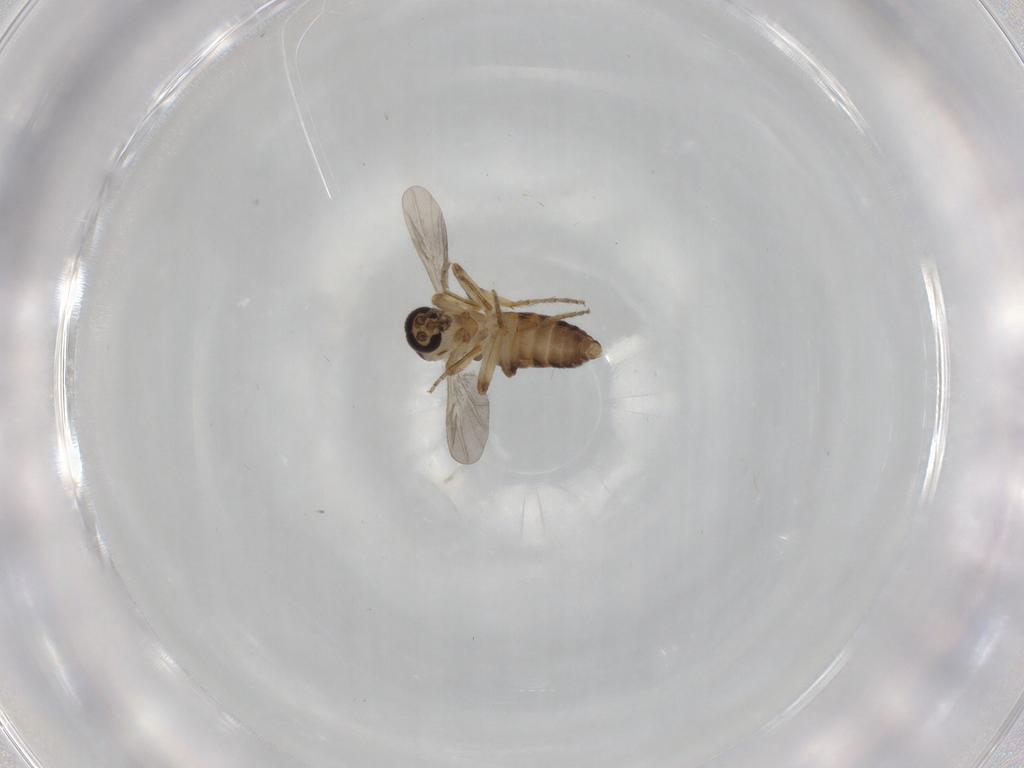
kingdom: Animalia
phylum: Arthropoda
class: Insecta
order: Diptera
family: Ceratopogonidae
